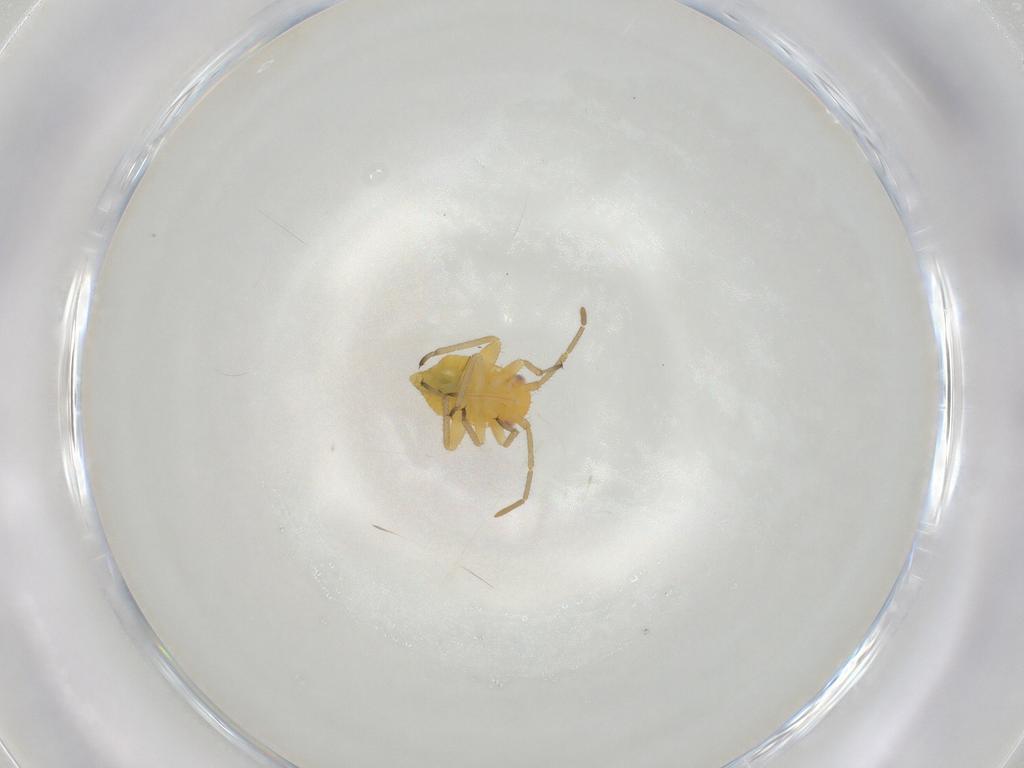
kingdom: Animalia
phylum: Arthropoda
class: Insecta
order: Hemiptera
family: Miridae
